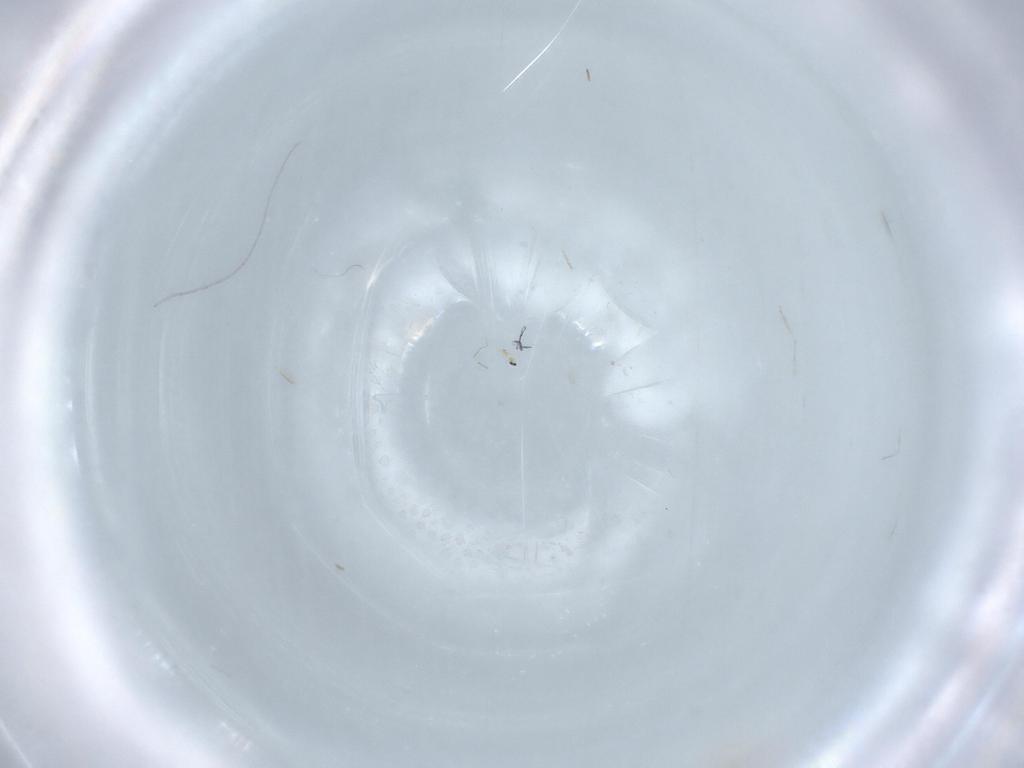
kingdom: Animalia
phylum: Arthropoda
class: Insecta
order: Diptera
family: Cecidomyiidae
